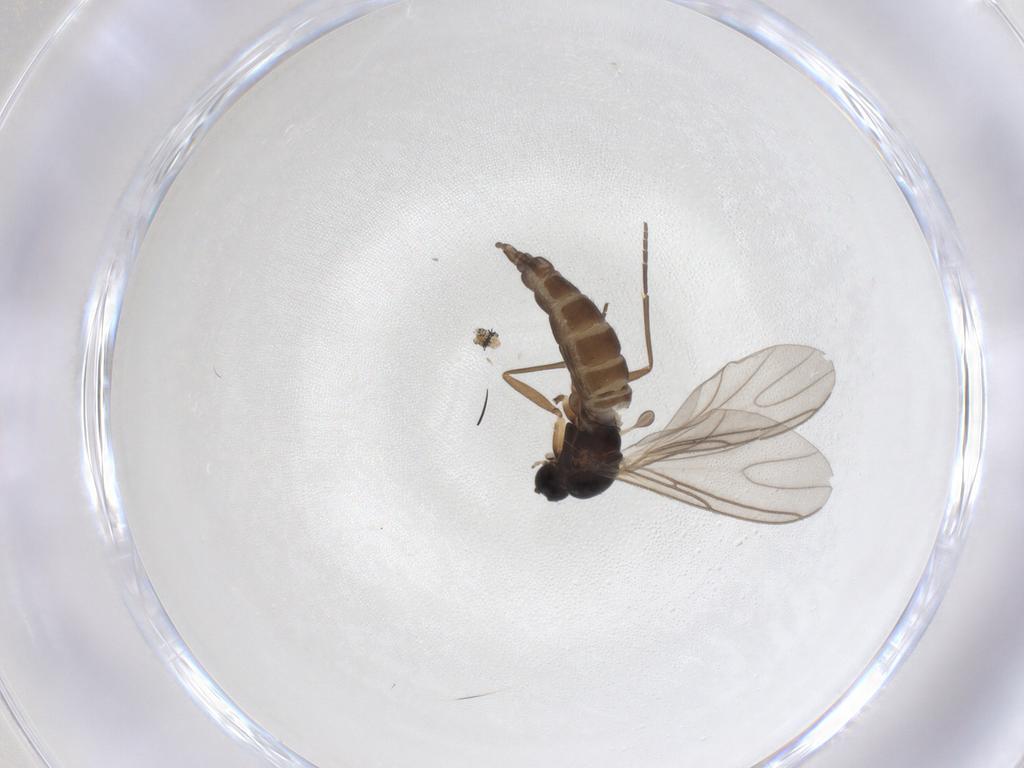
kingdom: Animalia
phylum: Arthropoda
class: Insecta
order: Diptera
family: Sciaridae
